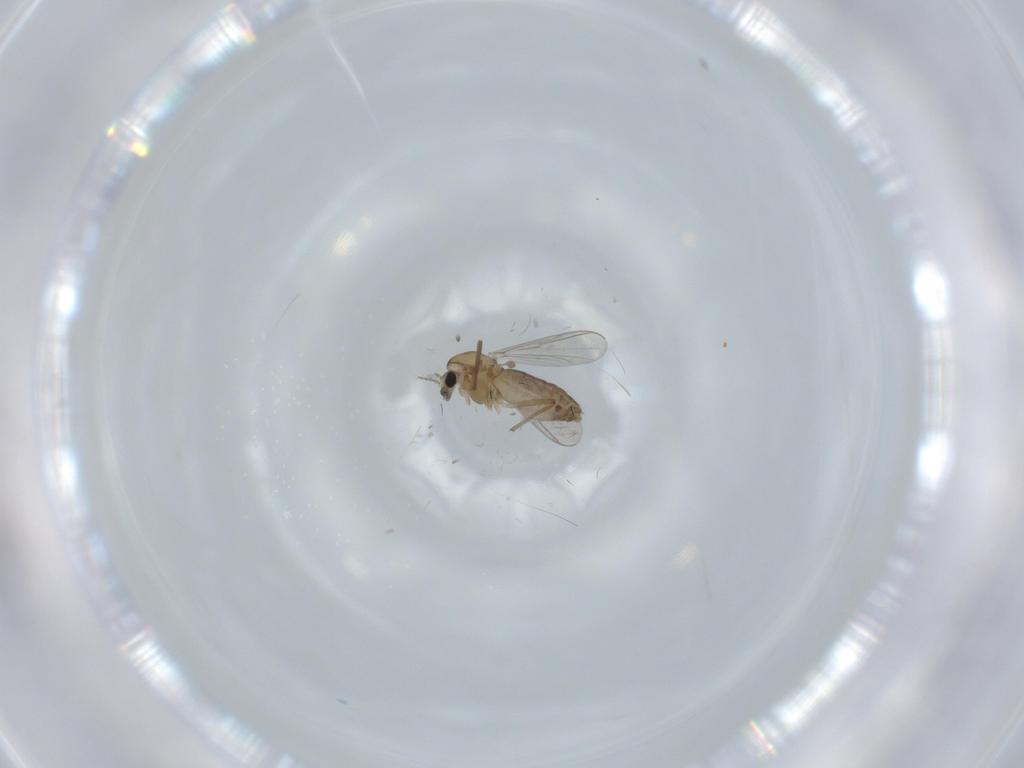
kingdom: Animalia
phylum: Arthropoda
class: Insecta
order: Diptera
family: Chironomidae
